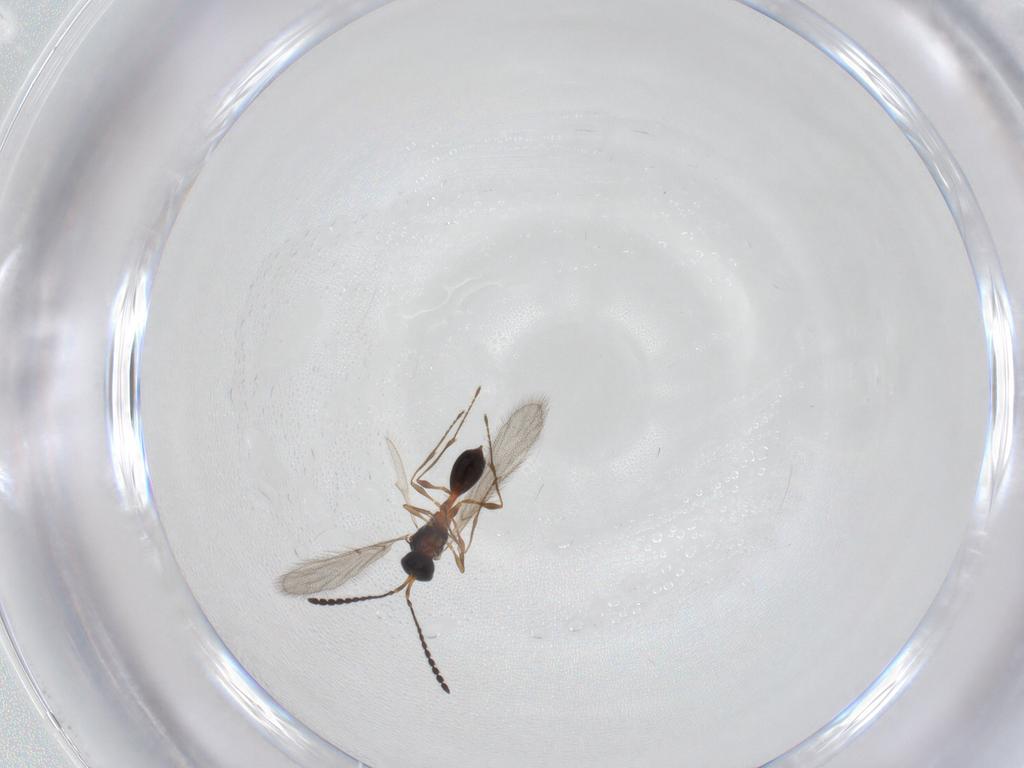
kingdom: Animalia
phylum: Arthropoda
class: Insecta
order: Hymenoptera
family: Diapriidae
